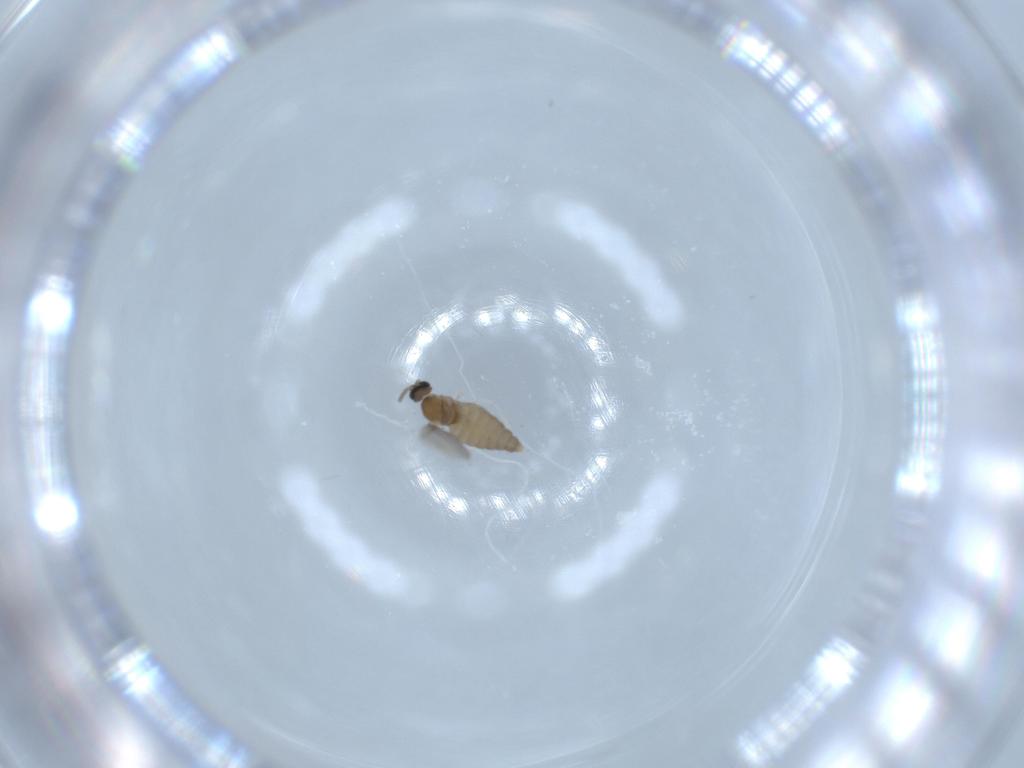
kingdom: Animalia
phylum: Arthropoda
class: Insecta
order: Diptera
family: Cecidomyiidae
